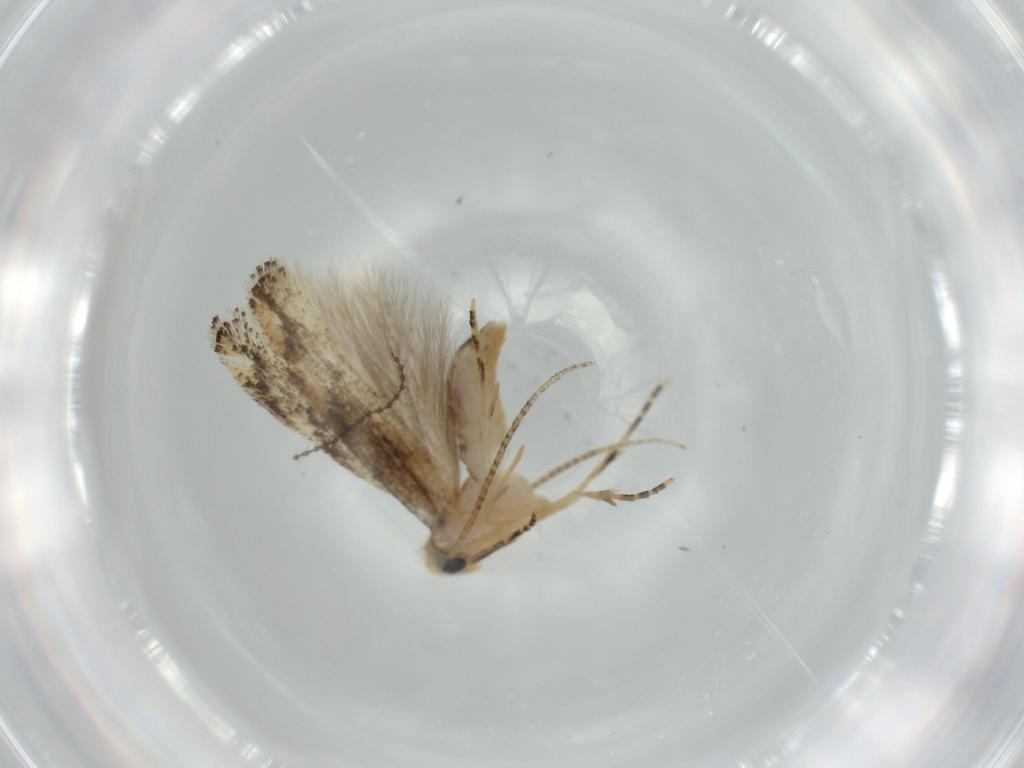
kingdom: Animalia
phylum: Arthropoda
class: Insecta
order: Lepidoptera
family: Bucculatricidae
